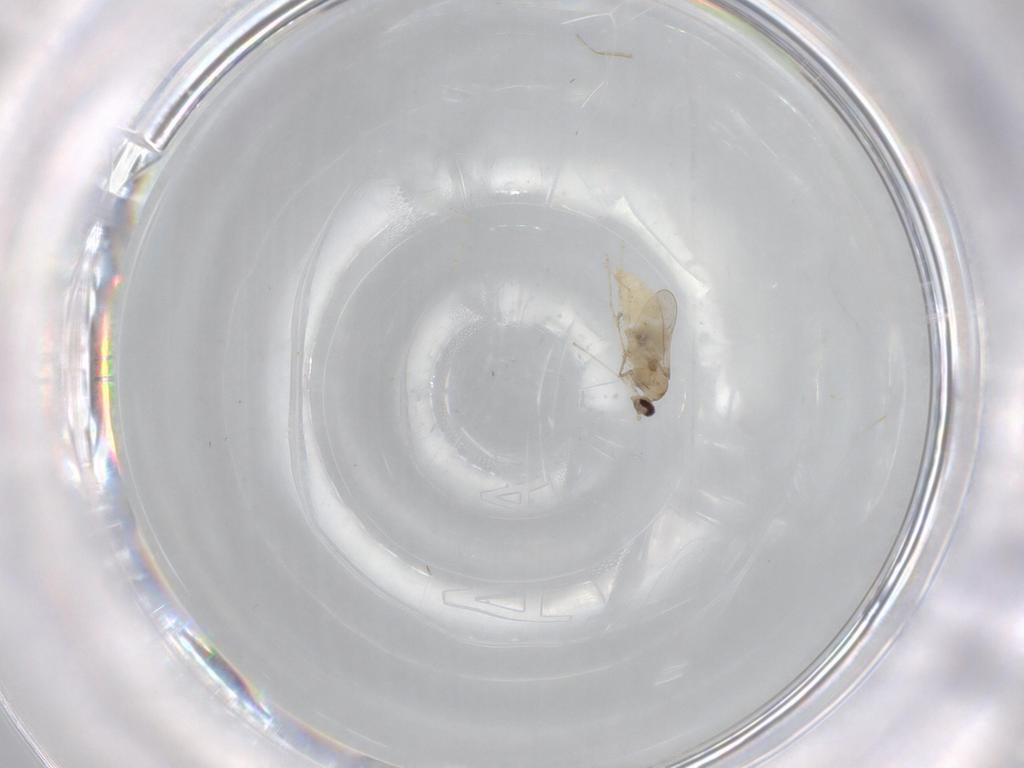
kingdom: Animalia
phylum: Arthropoda
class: Insecta
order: Diptera
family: Cecidomyiidae
